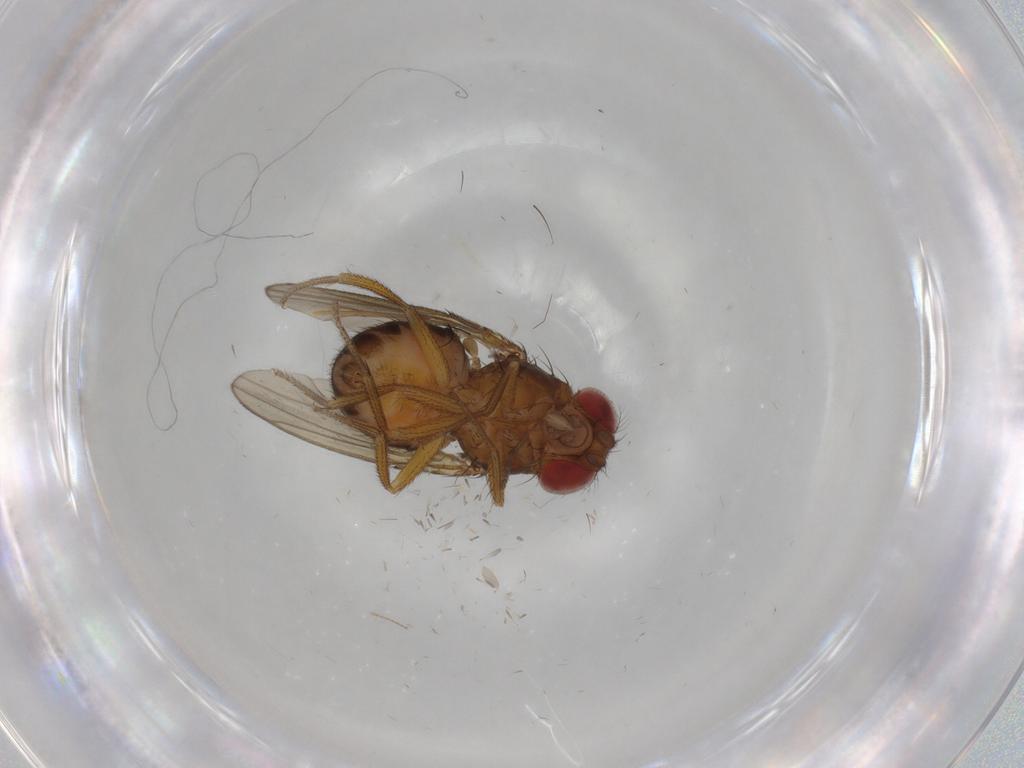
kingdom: Animalia
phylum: Arthropoda
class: Insecta
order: Diptera
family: Drosophilidae
